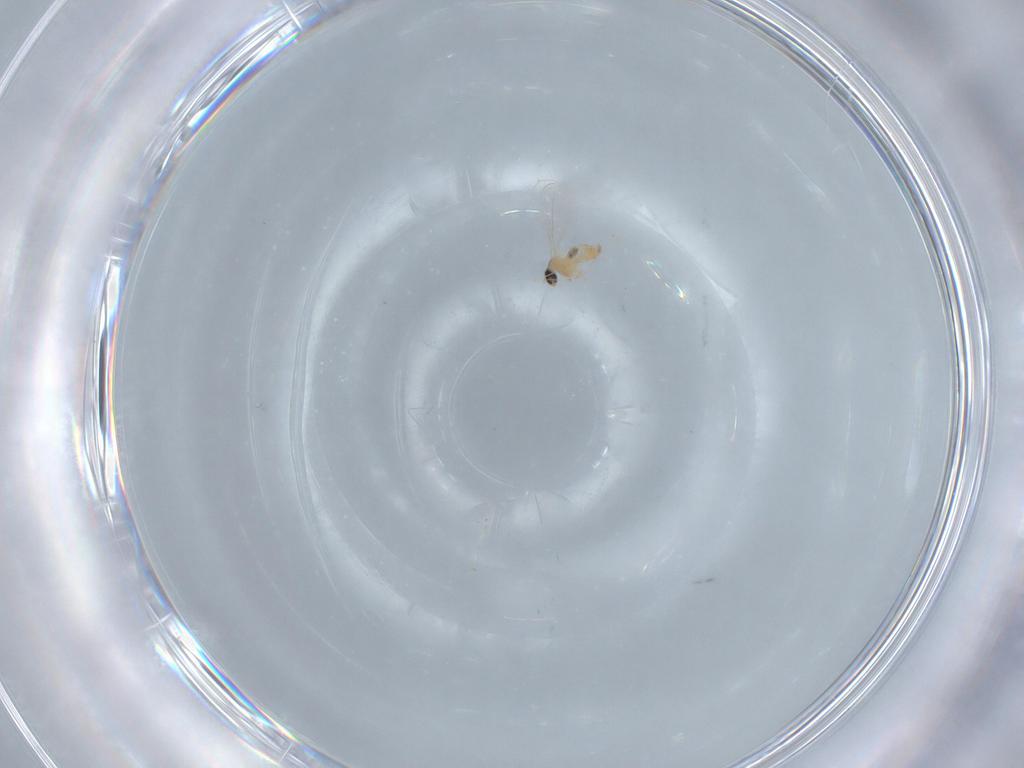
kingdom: Animalia
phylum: Arthropoda
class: Insecta
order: Diptera
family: Cecidomyiidae
